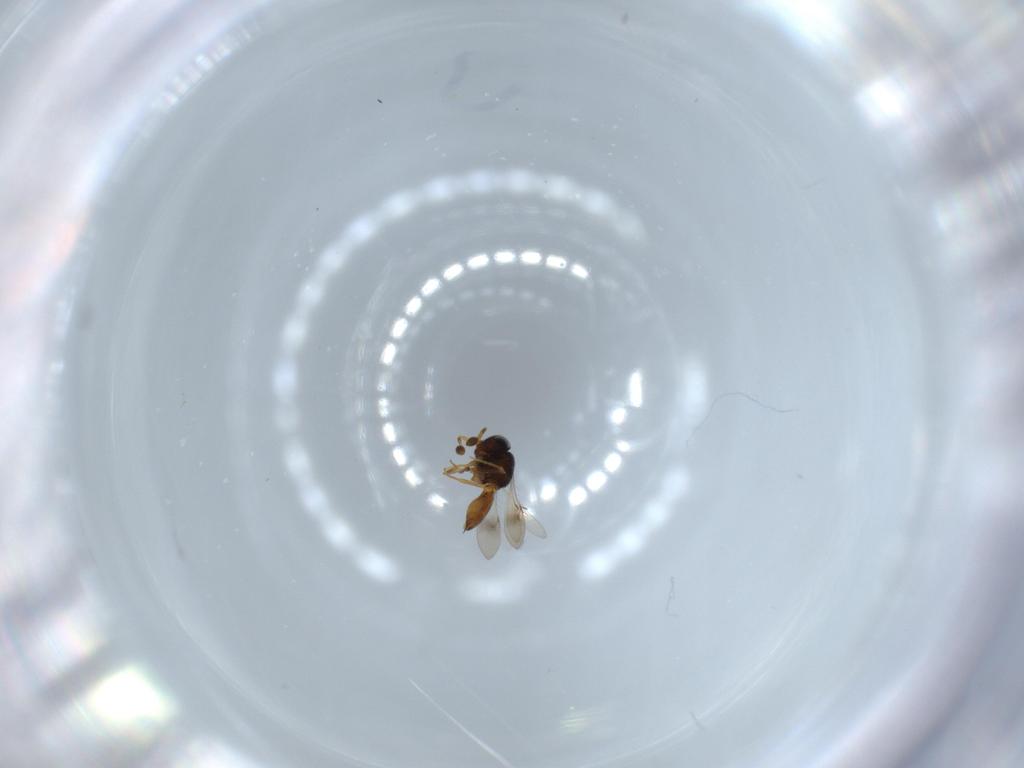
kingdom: Animalia
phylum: Arthropoda
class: Insecta
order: Hymenoptera
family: Scelionidae
